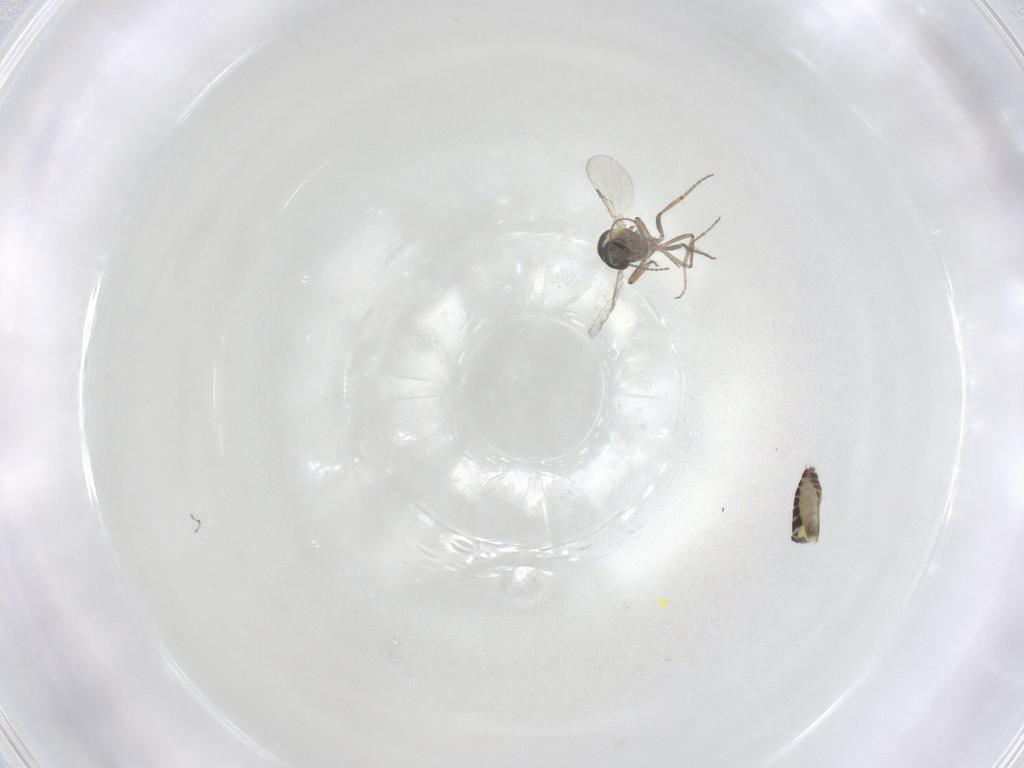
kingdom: Animalia
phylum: Arthropoda
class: Insecta
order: Diptera
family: Ceratopogonidae
